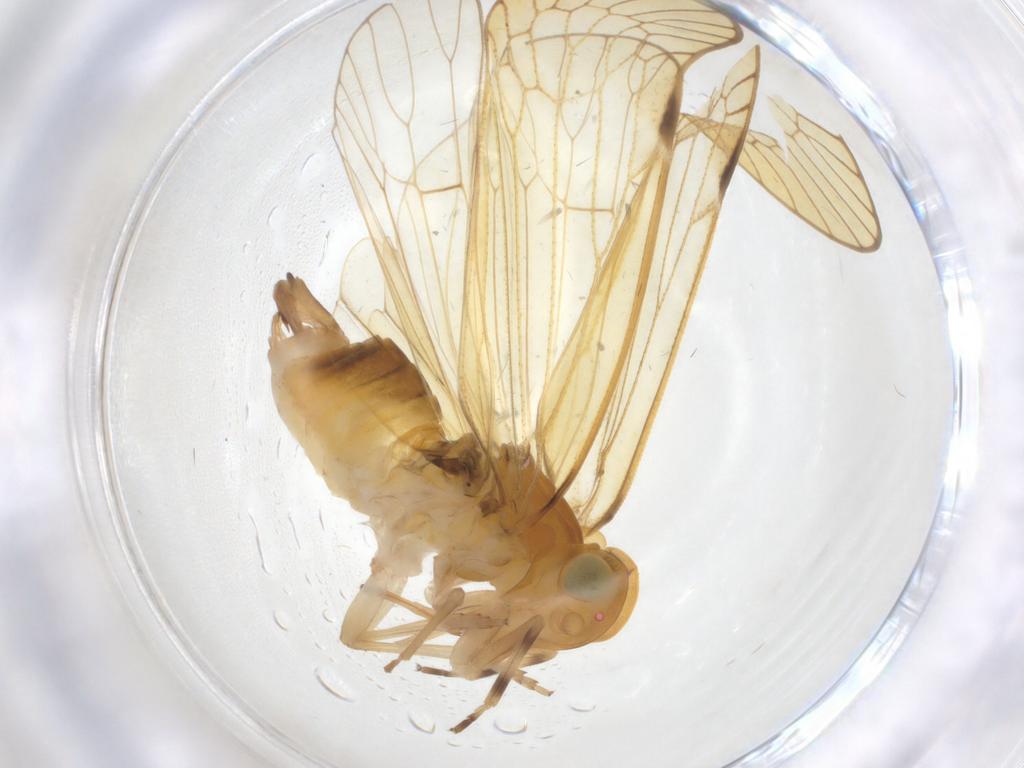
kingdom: Animalia
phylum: Arthropoda
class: Insecta
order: Hemiptera
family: Cixiidae
